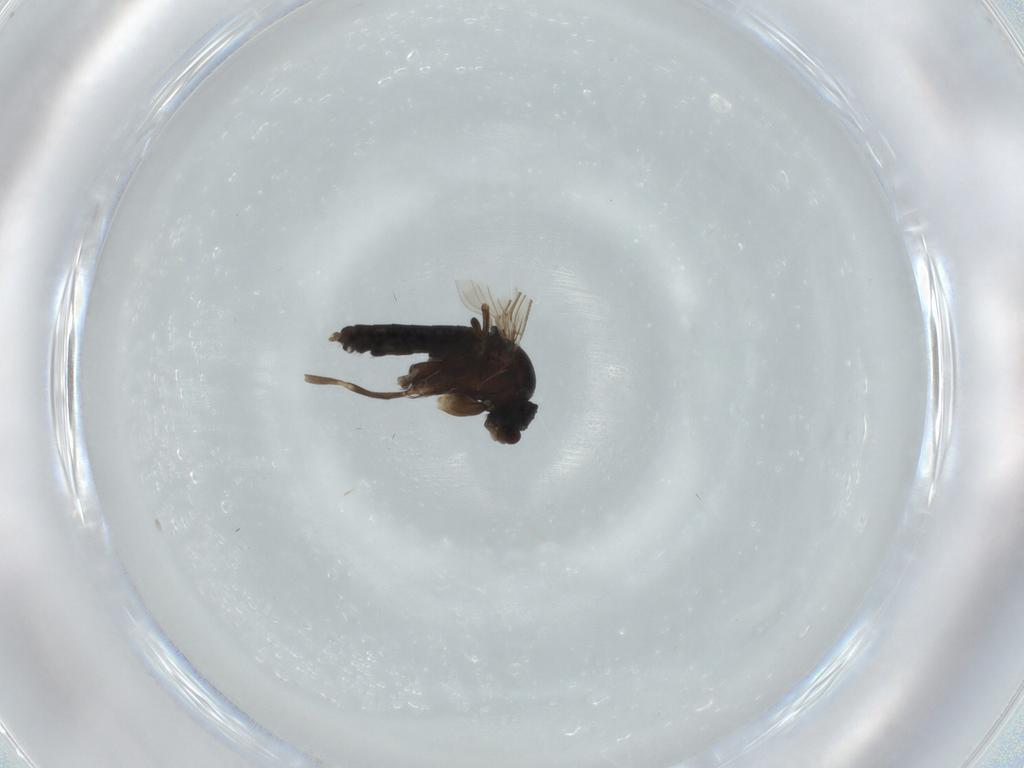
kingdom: Animalia
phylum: Arthropoda
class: Insecta
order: Diptera
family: Phoridae
